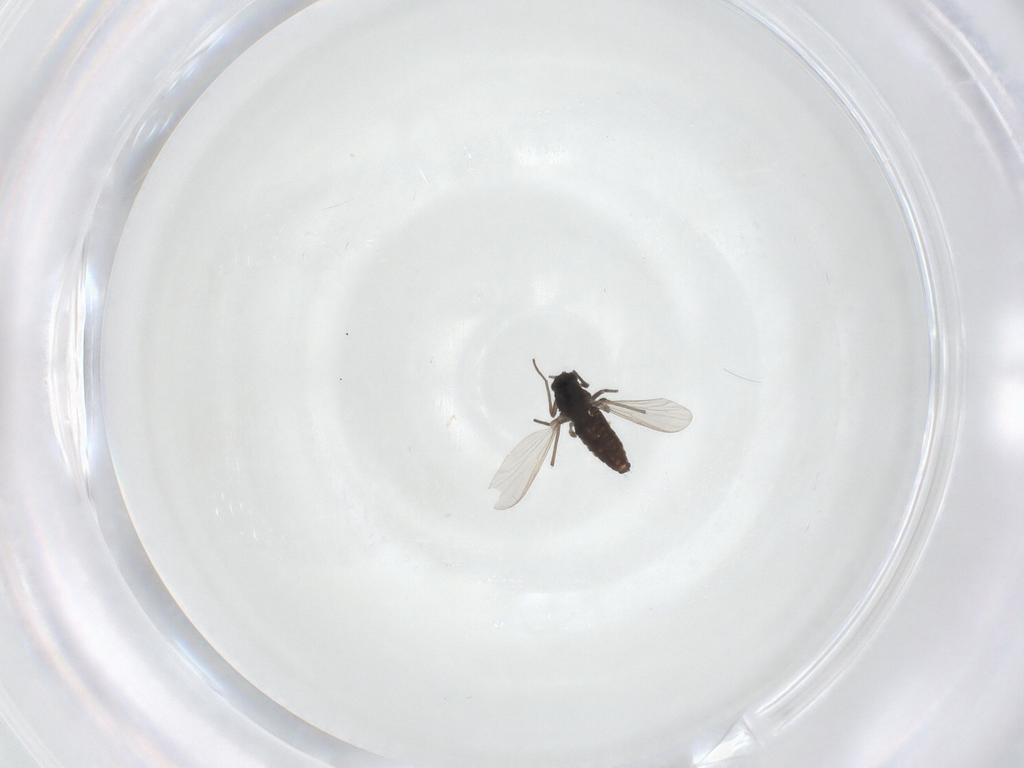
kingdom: Animalia
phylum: Arthropoda
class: Insecta
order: Diptera
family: Chironomidae
